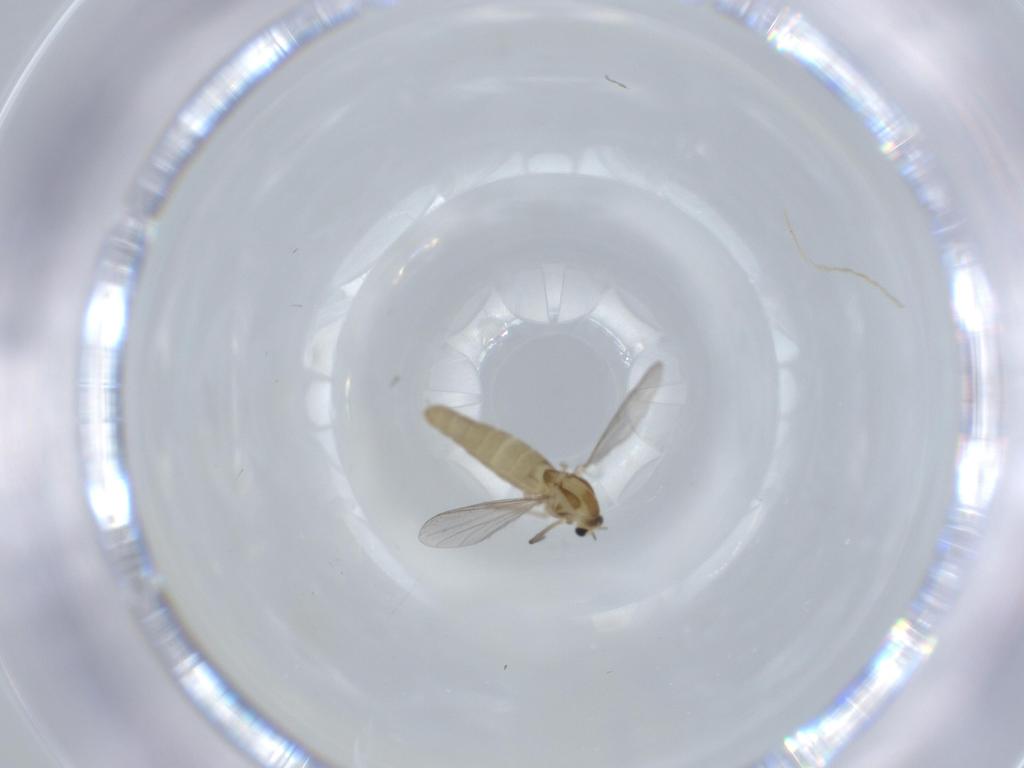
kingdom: Animalia
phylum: Arthropoda
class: Insecta
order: Diptera
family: Chironomidae
